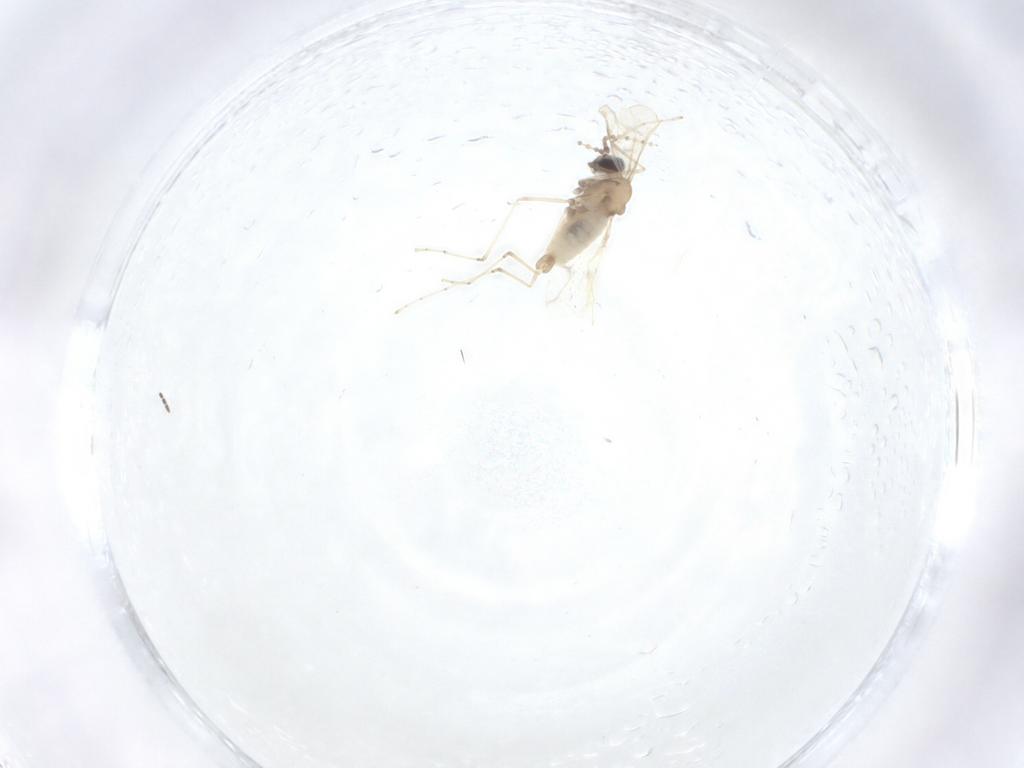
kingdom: Animalia
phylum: Arthropoda
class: Insecta
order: Diptera
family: Cecidomyiidae
